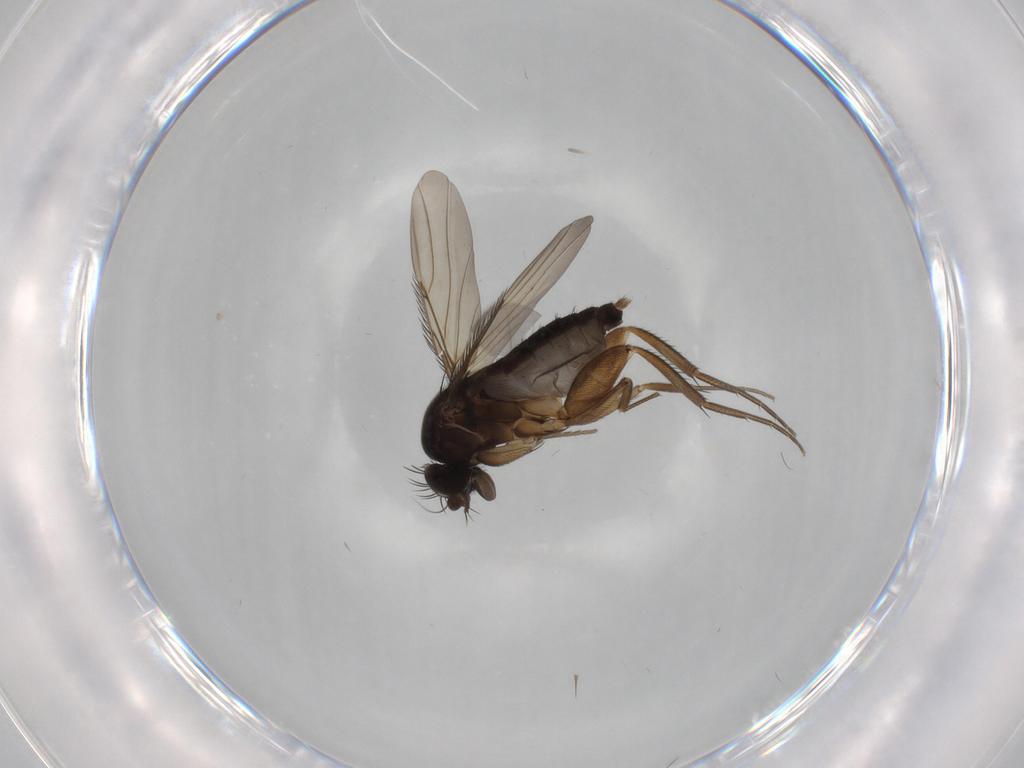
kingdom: Animalia
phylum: Arthropoda
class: Insecta
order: Diptera
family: Phoridae
